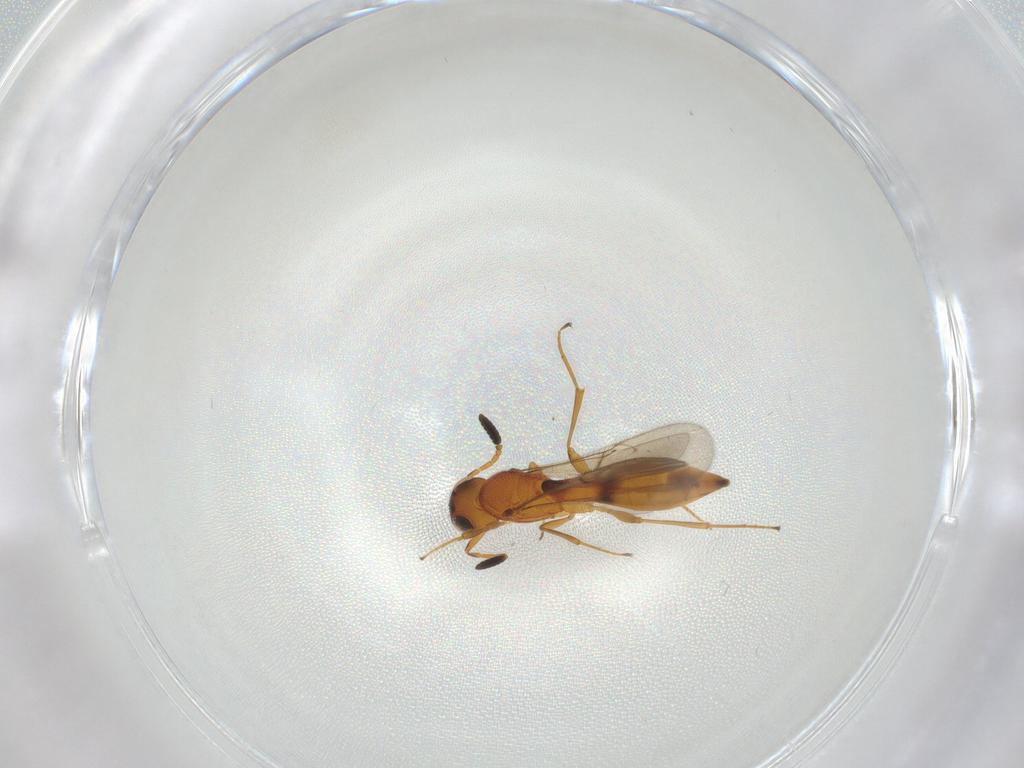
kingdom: Animalia
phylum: Arthropoda
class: Insecta
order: Hymenoptera
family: Scelionidae
